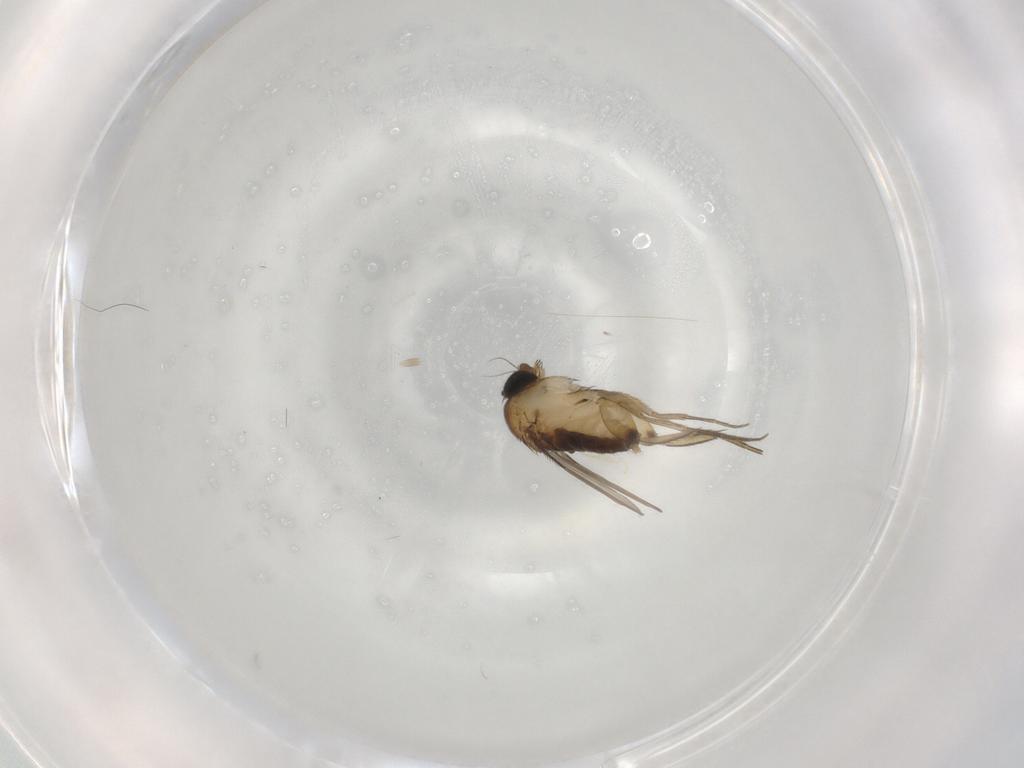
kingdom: Animalia
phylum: Arthropoda
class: Insecta
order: Diptera
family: Phoridae
